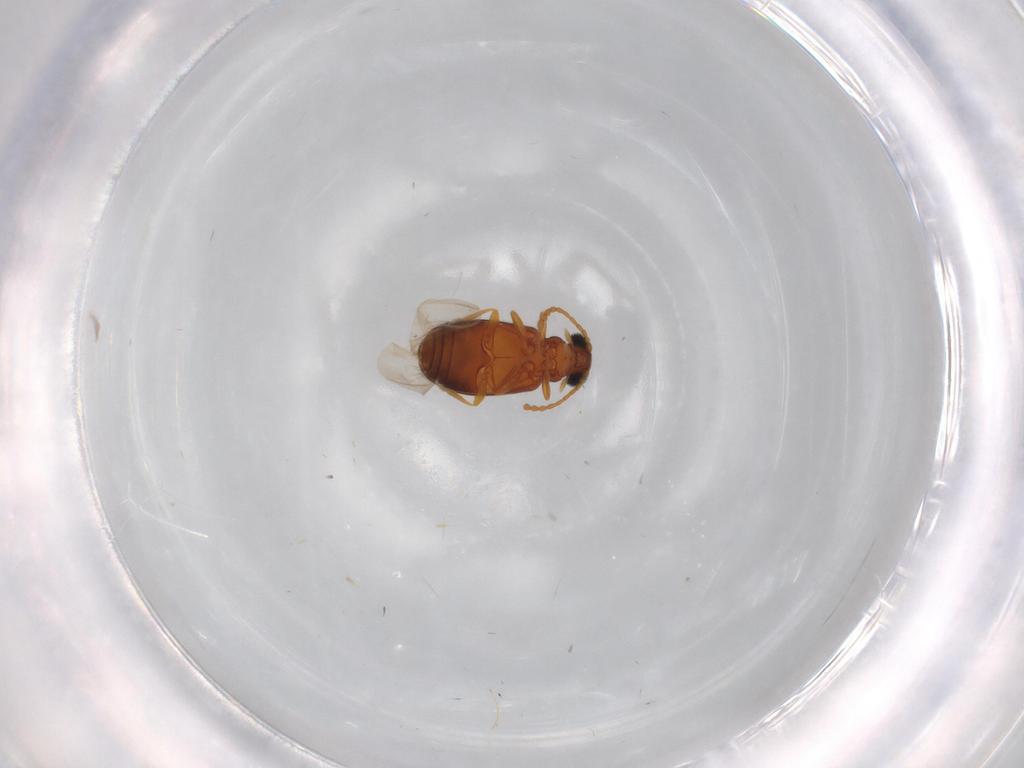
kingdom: Animalia
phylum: Arthropoda
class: Insecta
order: Coleoptera
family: Aderidae
